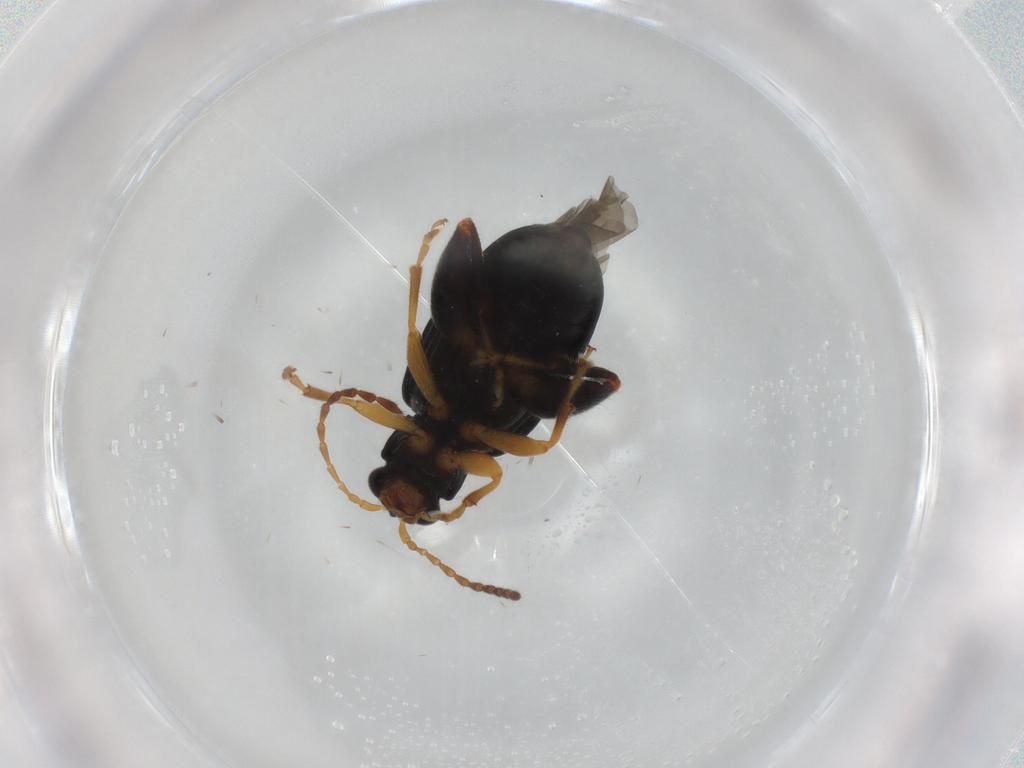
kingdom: Animalia
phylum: Arthropoda
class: Insecta
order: Coleoptera
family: Chrysomelidae
